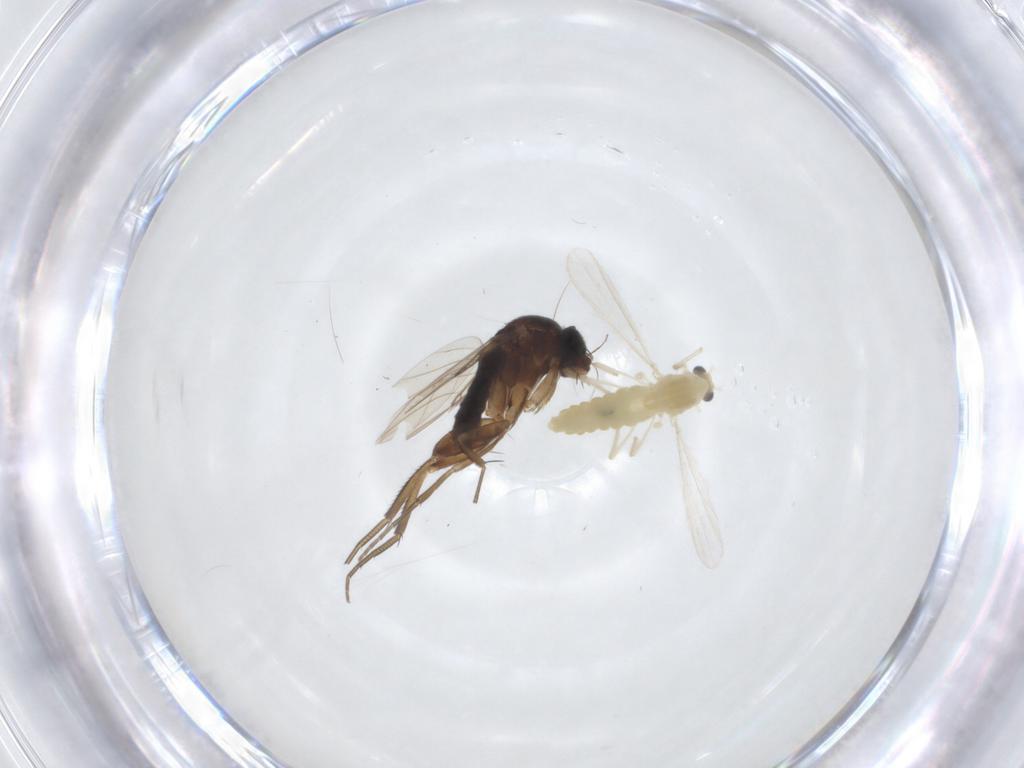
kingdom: Animalia
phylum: Arthropoda
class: Insecta
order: Diptera
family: Chironomidae
